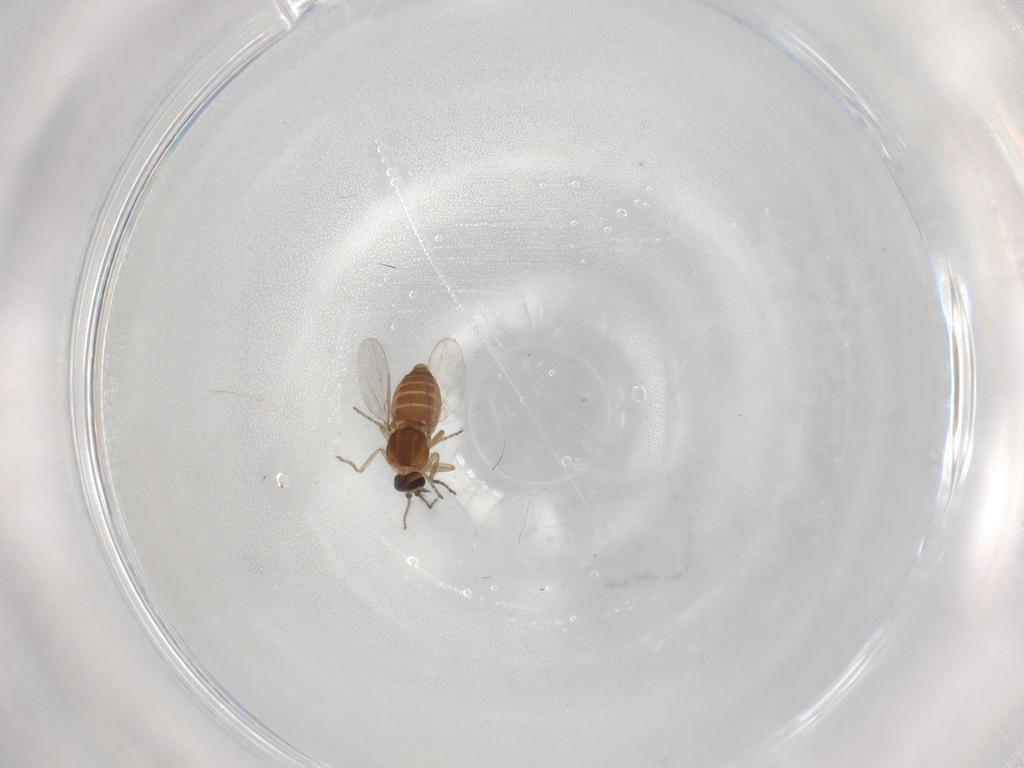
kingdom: Animalia
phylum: Arthropoda
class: Insecta
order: Diptera
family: Ceratopogonidae
